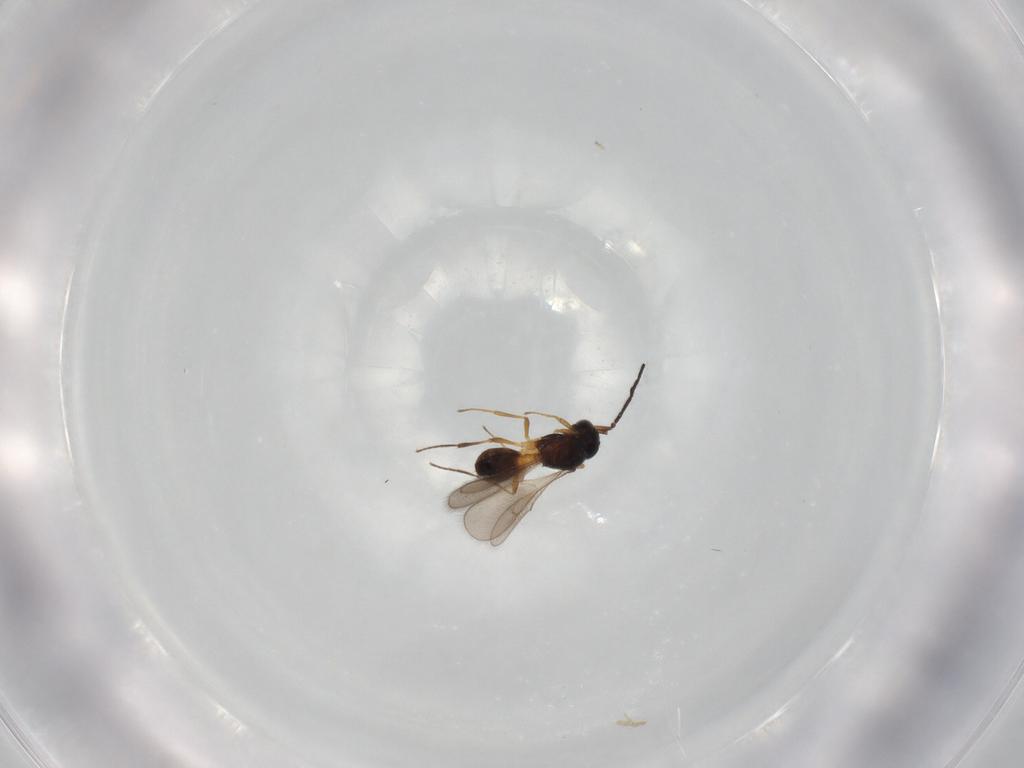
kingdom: Animalia
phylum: Arthropoda
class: Insecta
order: Hymenoptera
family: Scelionidae
